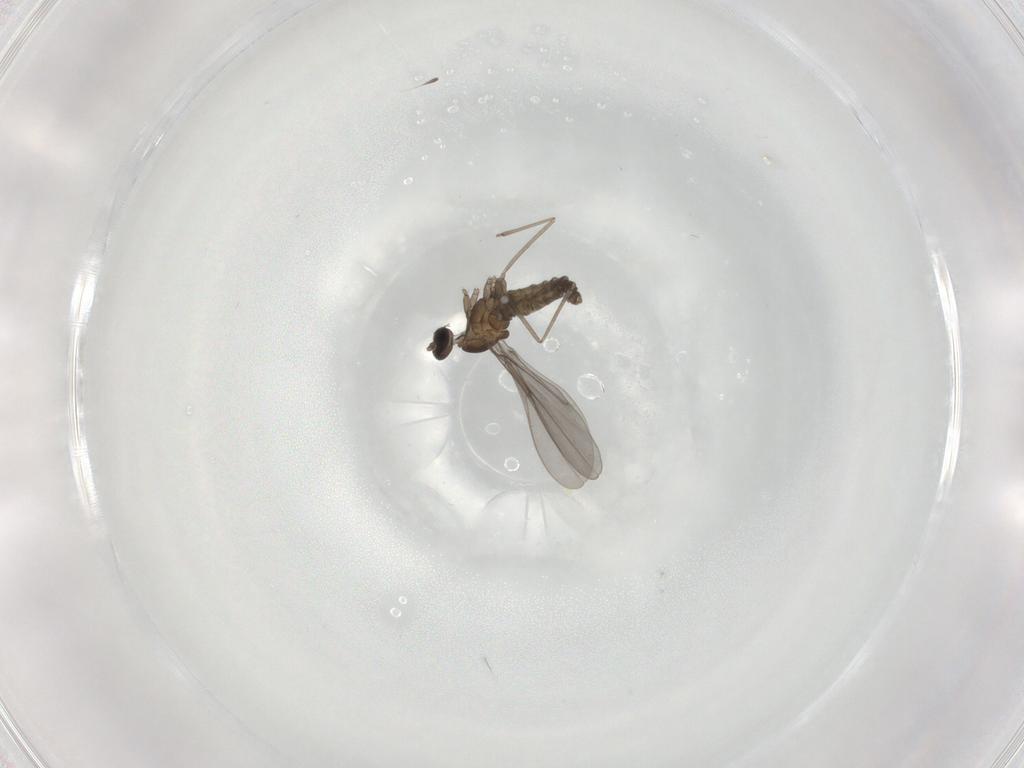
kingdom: Animalia
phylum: Arthropoda
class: Insecta
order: Diptera
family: Cecidomyiidae
